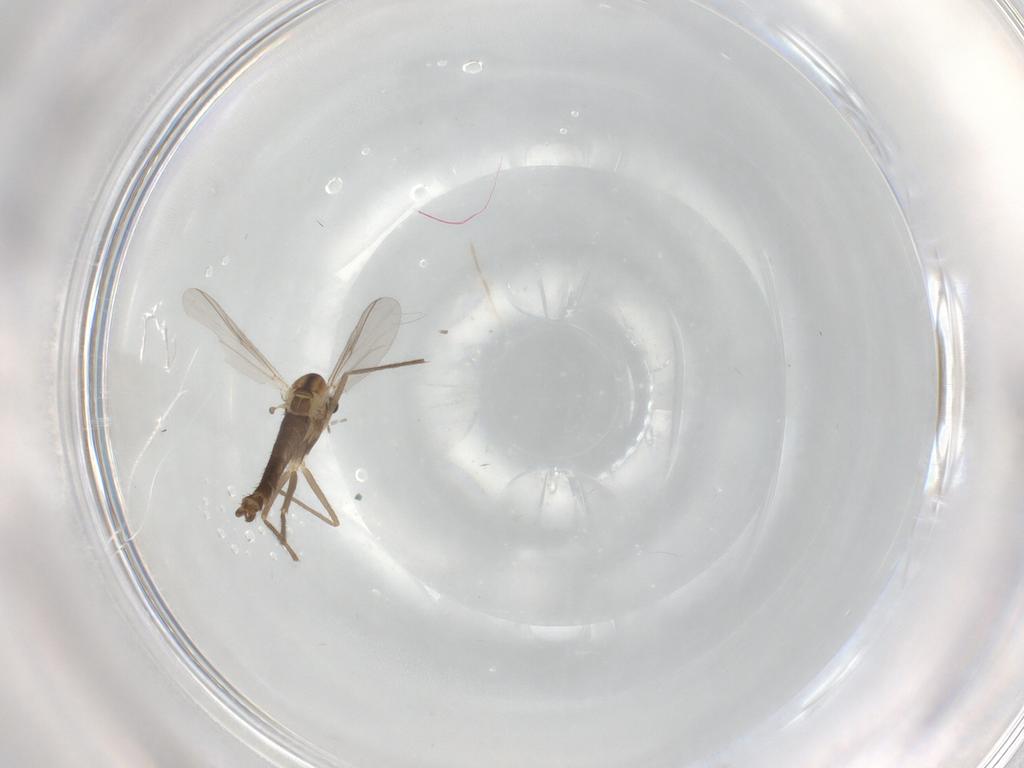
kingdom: Animalia
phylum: Arthropoda
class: Insecta
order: Diptera
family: Chironomidae
